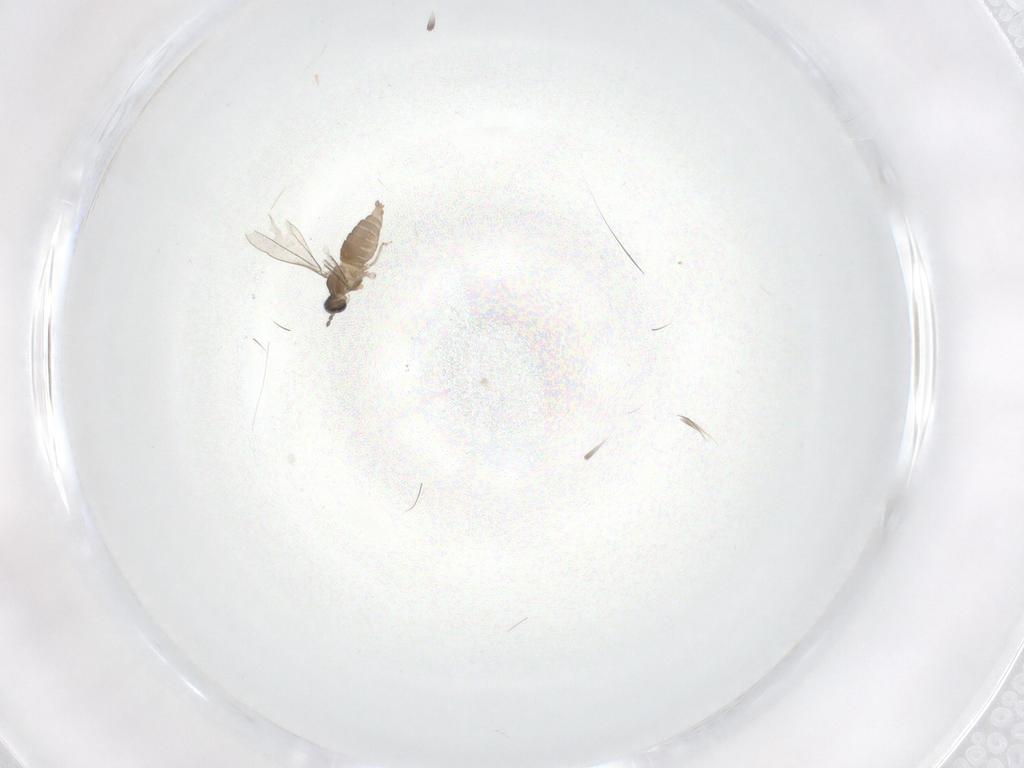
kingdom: Animalia
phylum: Arthropoda
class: Insecta
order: Diptera
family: Cecidomyiidae
